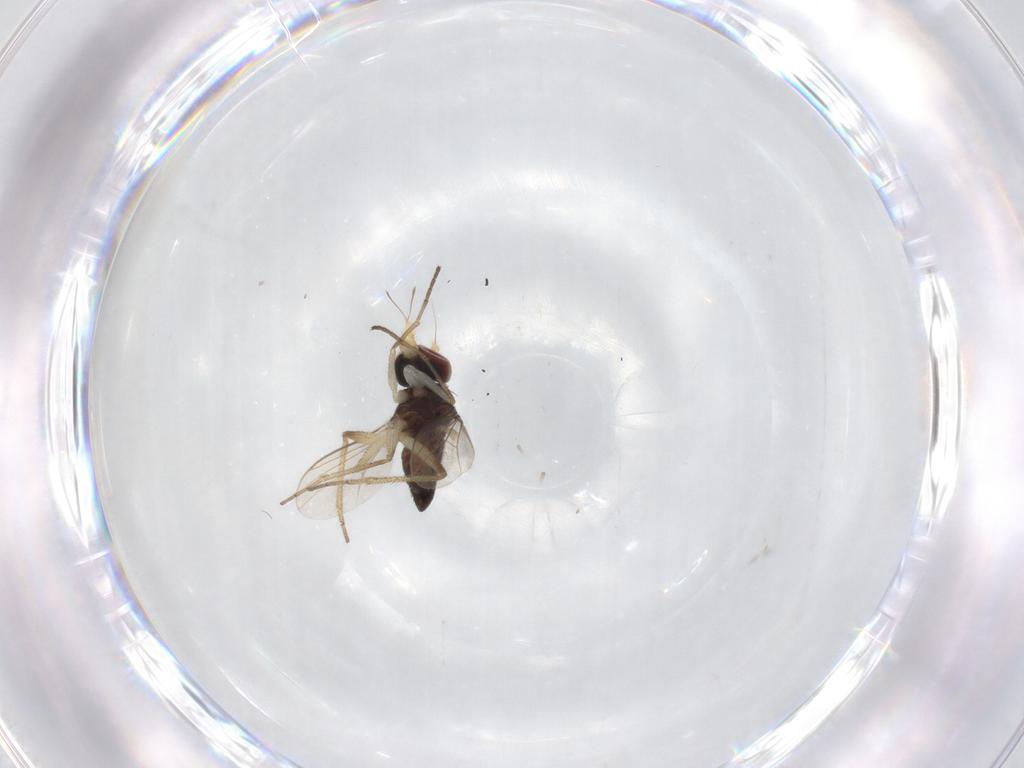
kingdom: Animalia
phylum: Arthropoda
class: Insecta
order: Diptera
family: Dolichopodidae
